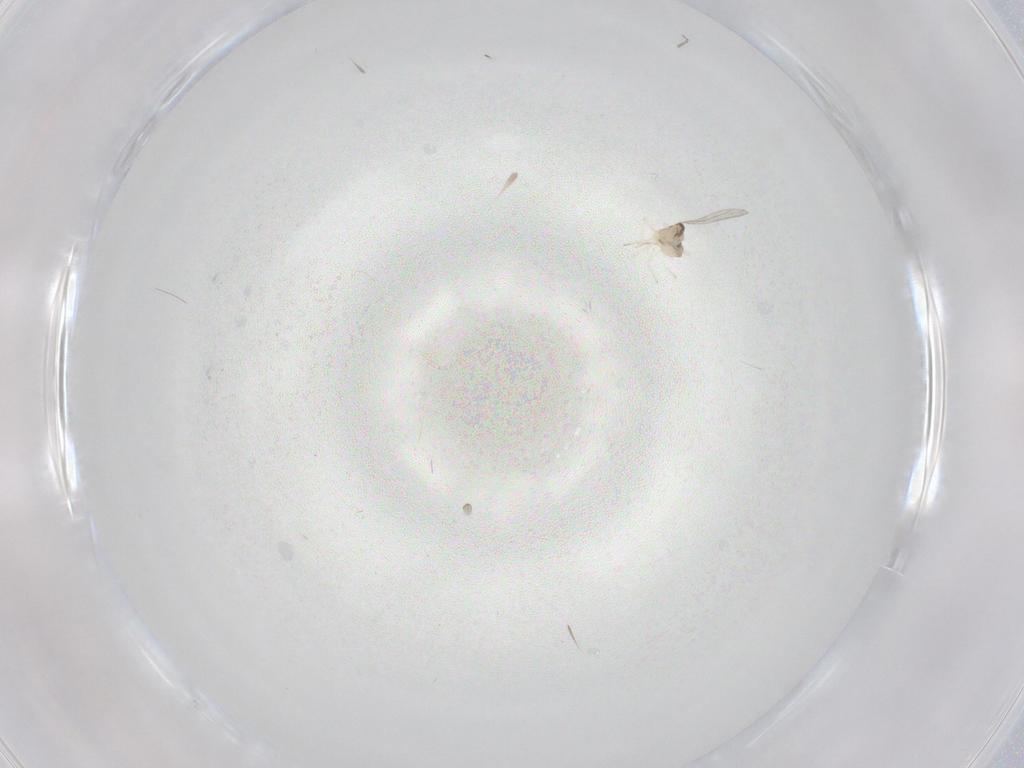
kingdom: Animalia
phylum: Arthropoda
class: Insecta
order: Diptera
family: Cecidomyiidae
